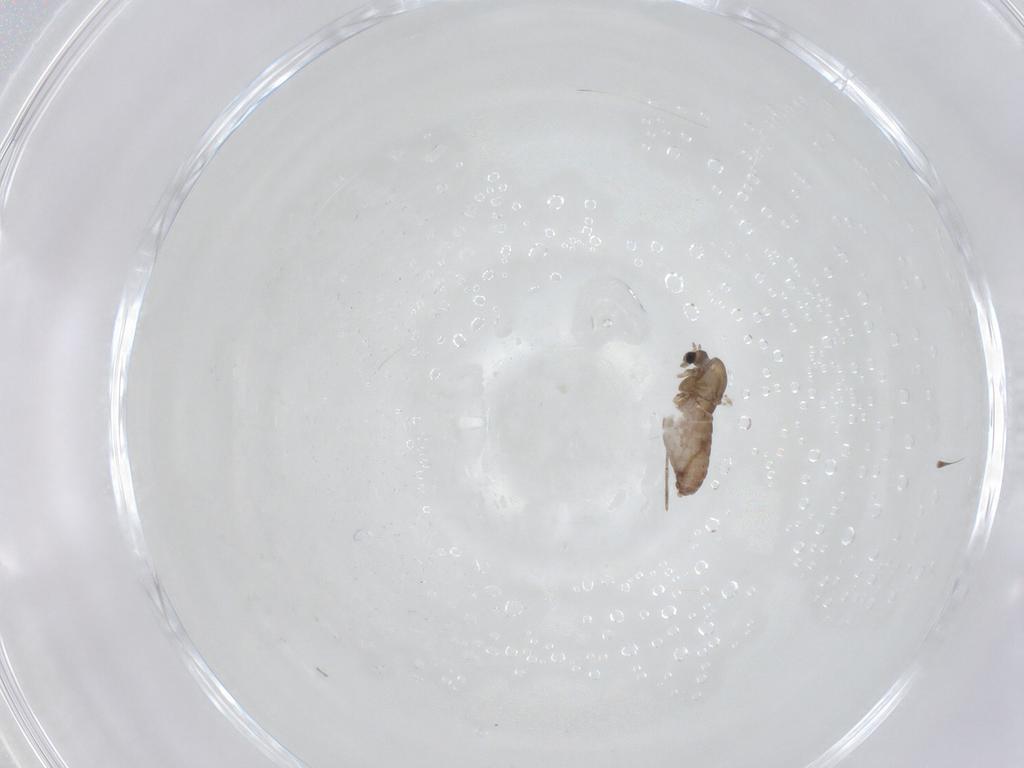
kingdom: Animalia
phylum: Arthropoda
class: Insecta
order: Diptera
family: Chironomidae
